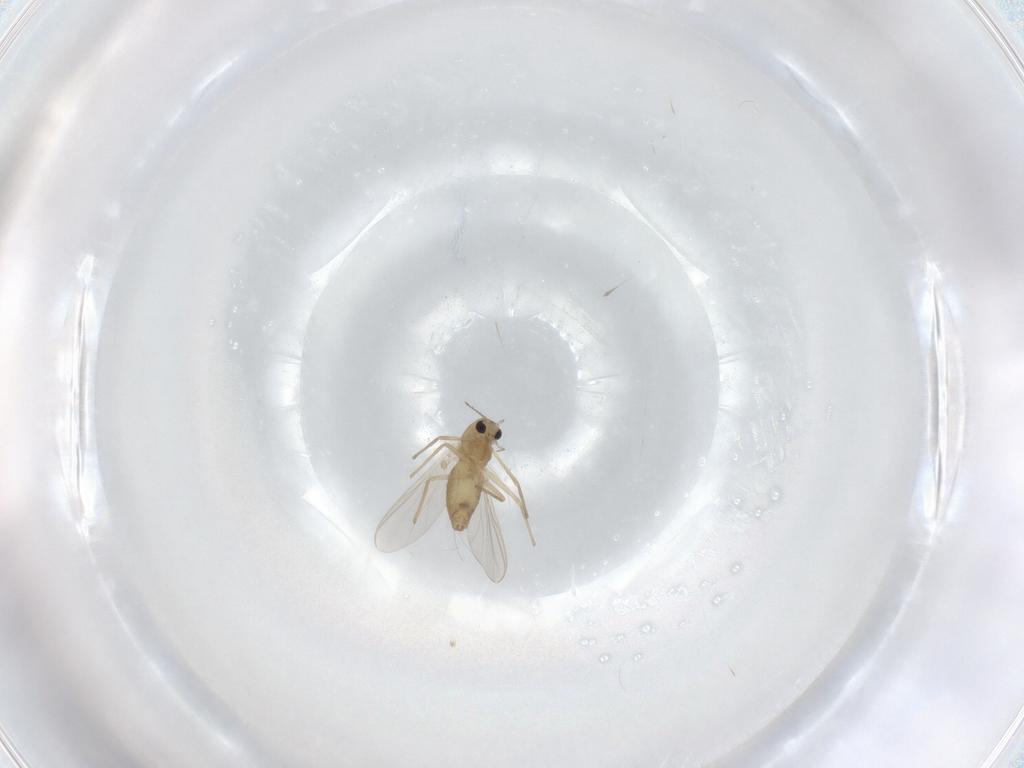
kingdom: Animalia
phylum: Arthropoda
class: Insecta
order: Diptera
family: Chironomidae
